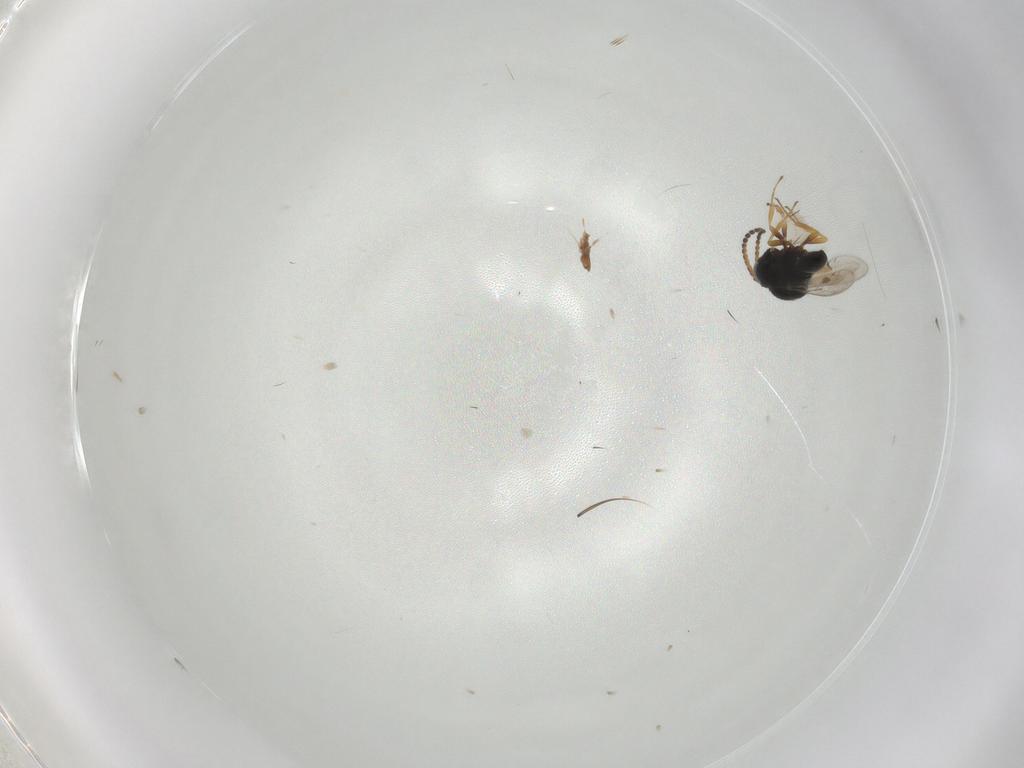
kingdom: Animalia
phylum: Arthropoda
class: Insecta
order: Hymenoptera
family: Scelionidae
